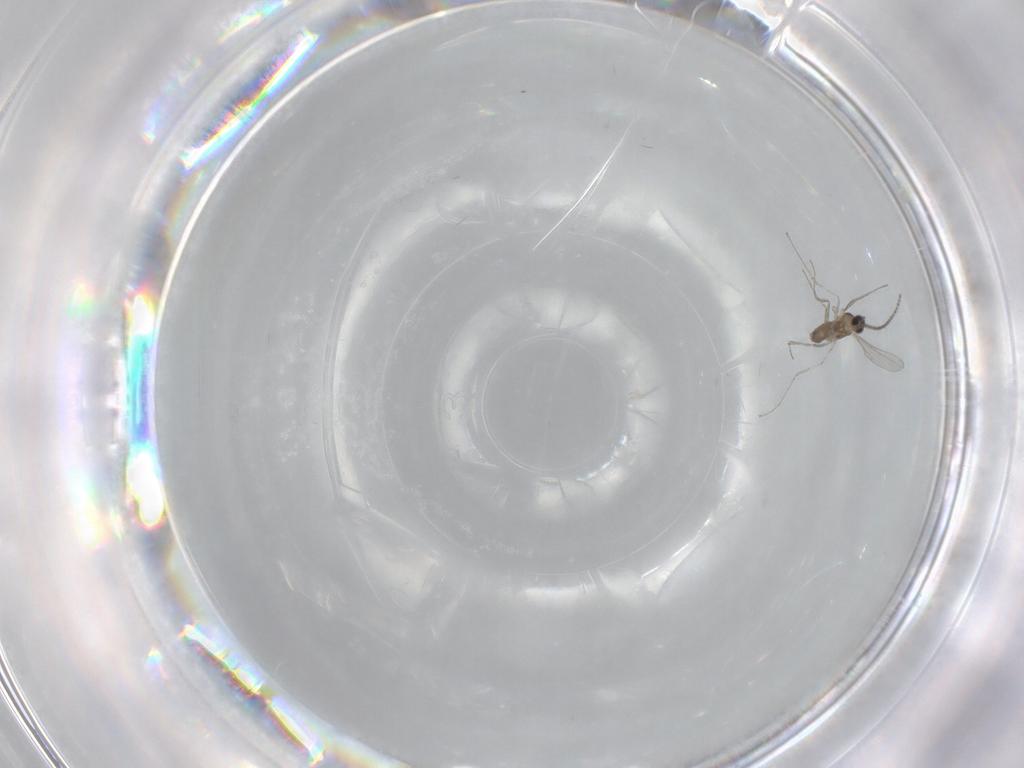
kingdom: Animalia
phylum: Arthropoda
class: Insecta
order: Diptera
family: Cecidomyiidae
